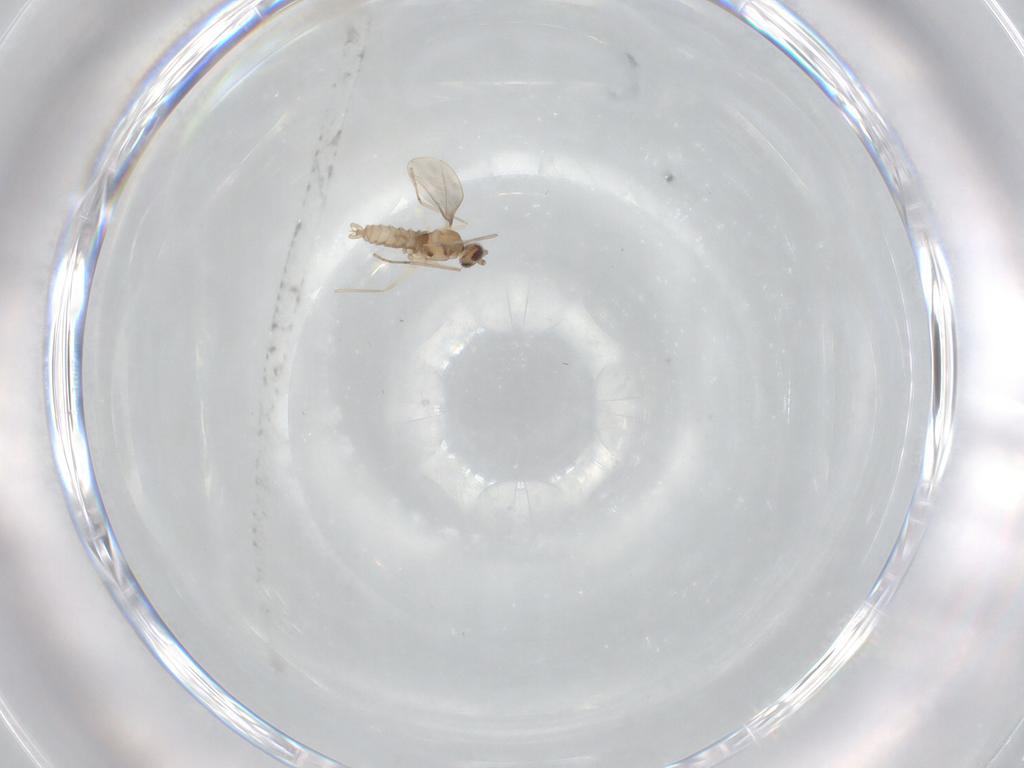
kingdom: Animalia
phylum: Arthropoda
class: Insecta
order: Diptera
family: Cecidomyiidae
